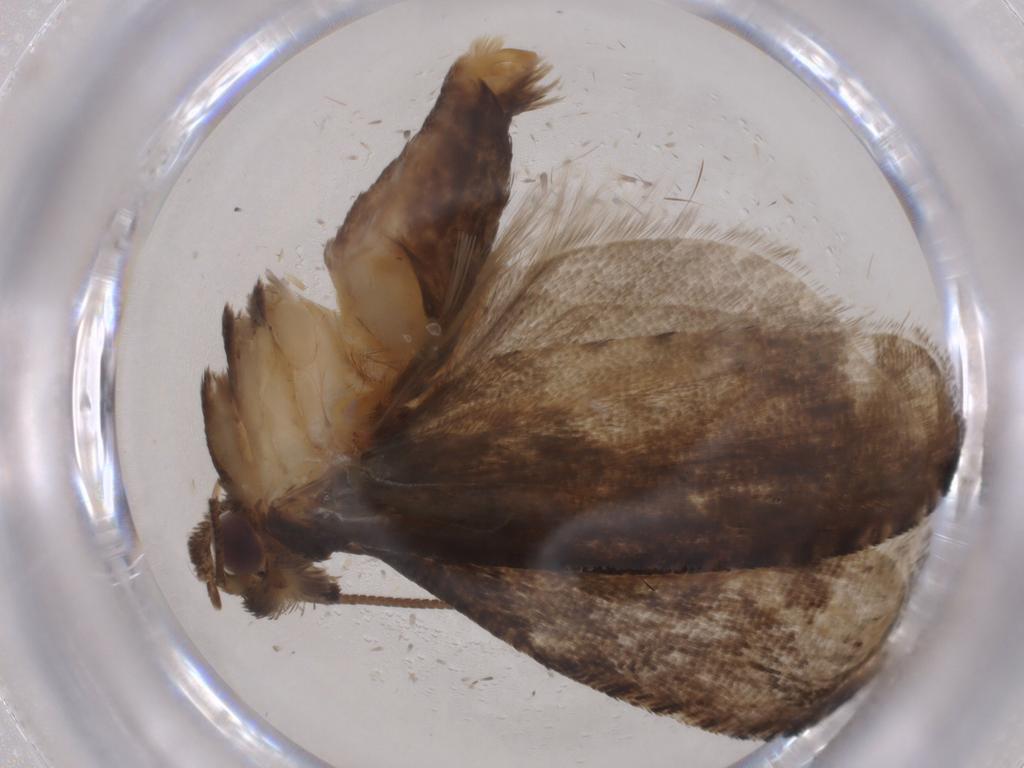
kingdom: Animalia
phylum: Arthropoda
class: Insecta
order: Lepidoptera
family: Tortricidae
